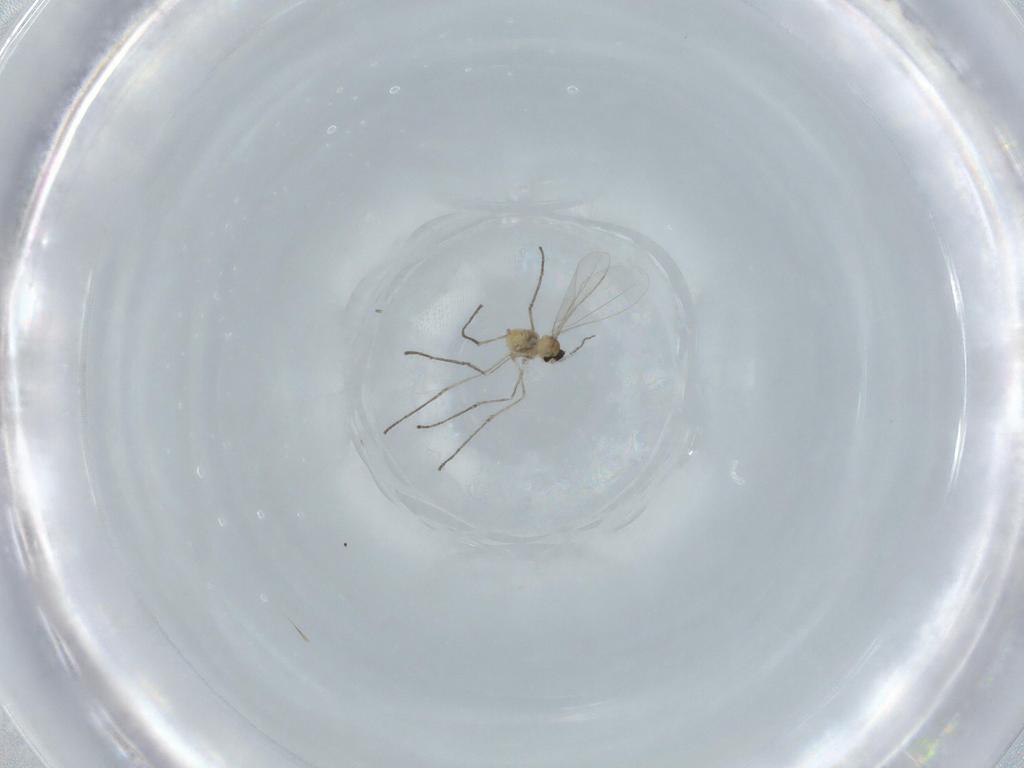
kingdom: Animalia
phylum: Arthropoda
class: Insecta
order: Diptera
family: Cecidomyiidae
